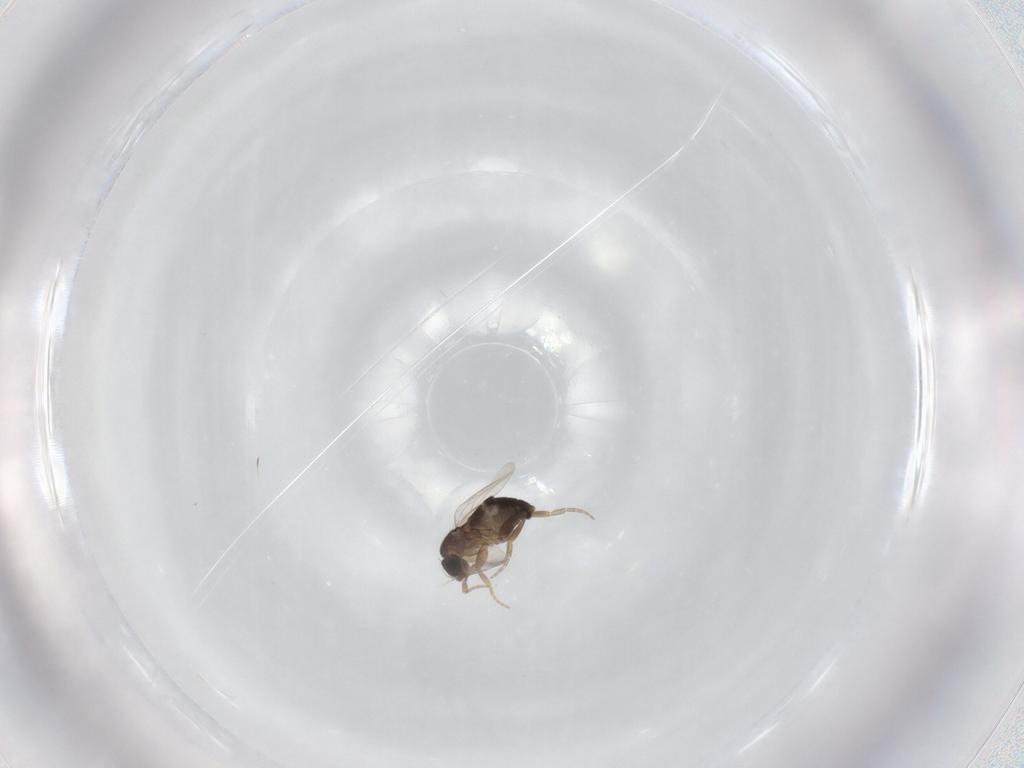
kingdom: Animalia
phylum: Arthropoda
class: Insecta
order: Diptera
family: Phoridae
